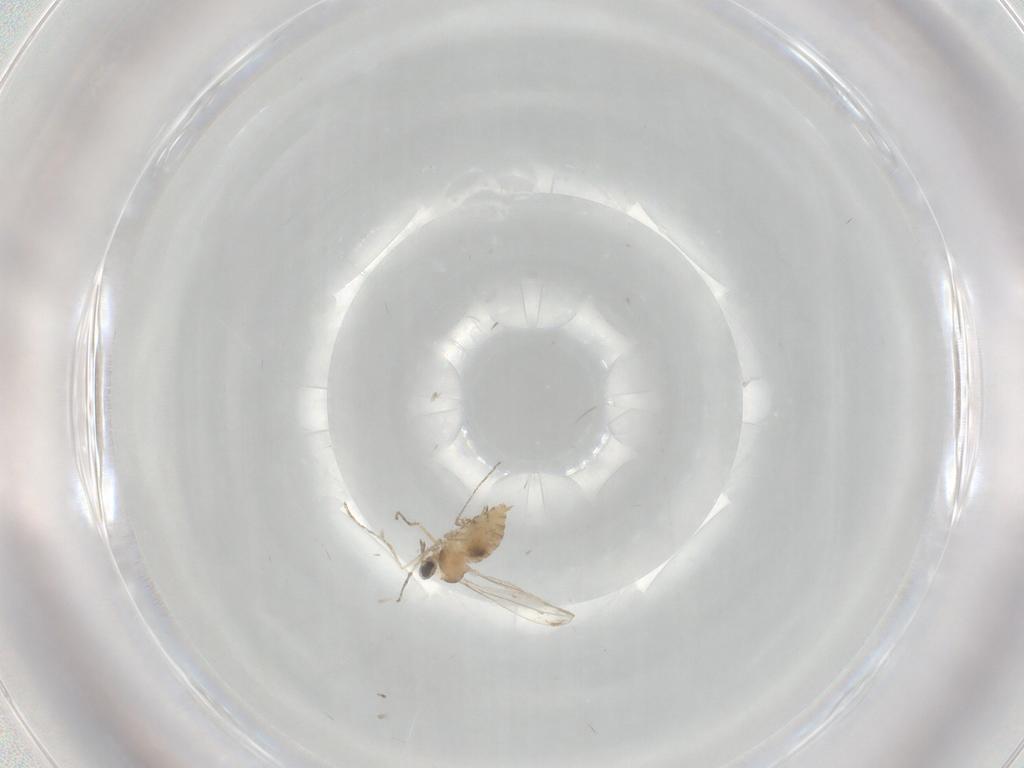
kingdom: Animalia
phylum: Arthropoda
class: Insecta
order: Diptera
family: Cecidomyiidae
